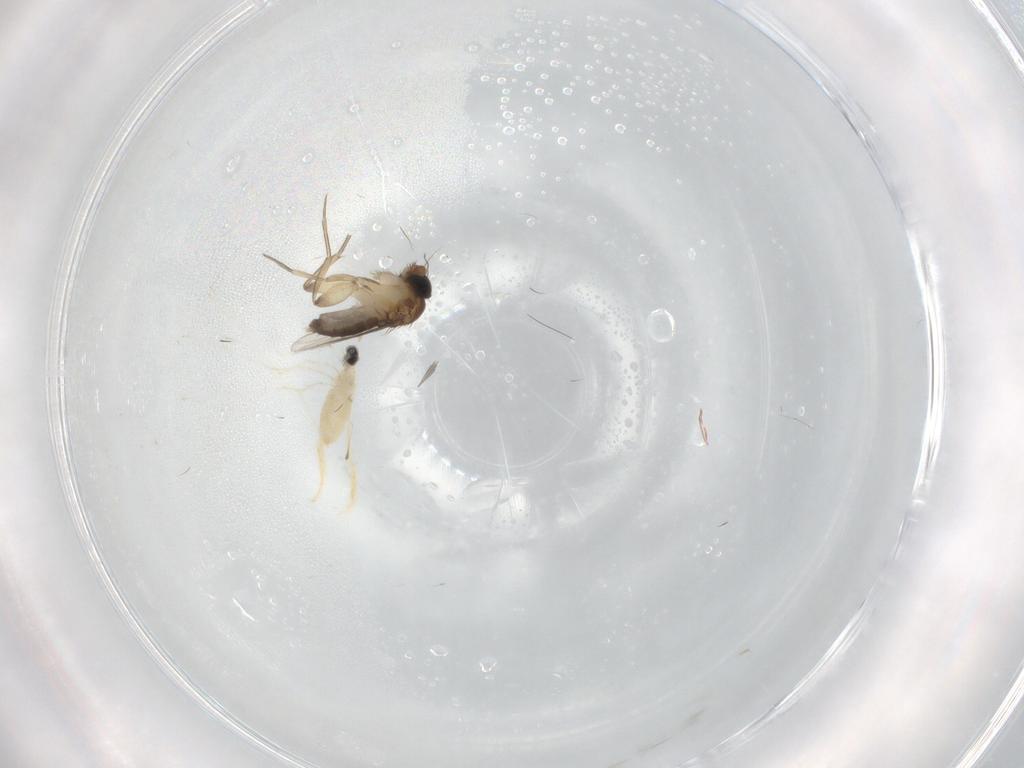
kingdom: Animalia
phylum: Arthropoda
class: Insecta
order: Diptera
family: Cecidomyiidae
